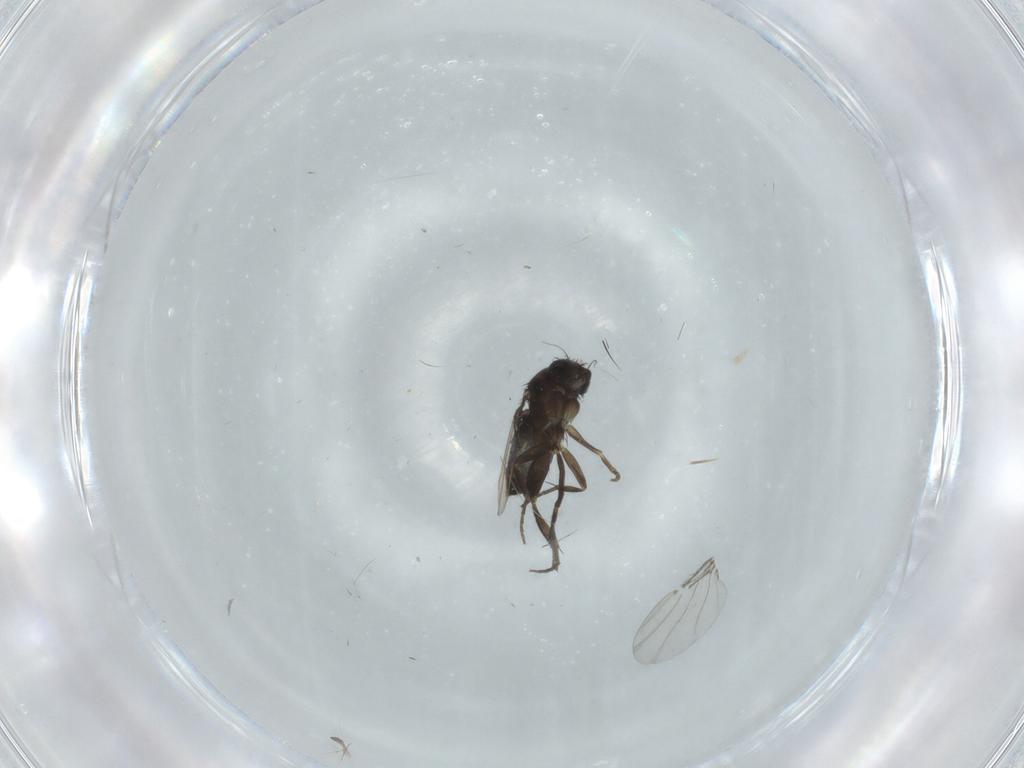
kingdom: Animalia
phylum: Arthropoda
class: Insecta
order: Diptera
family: Phoridae
